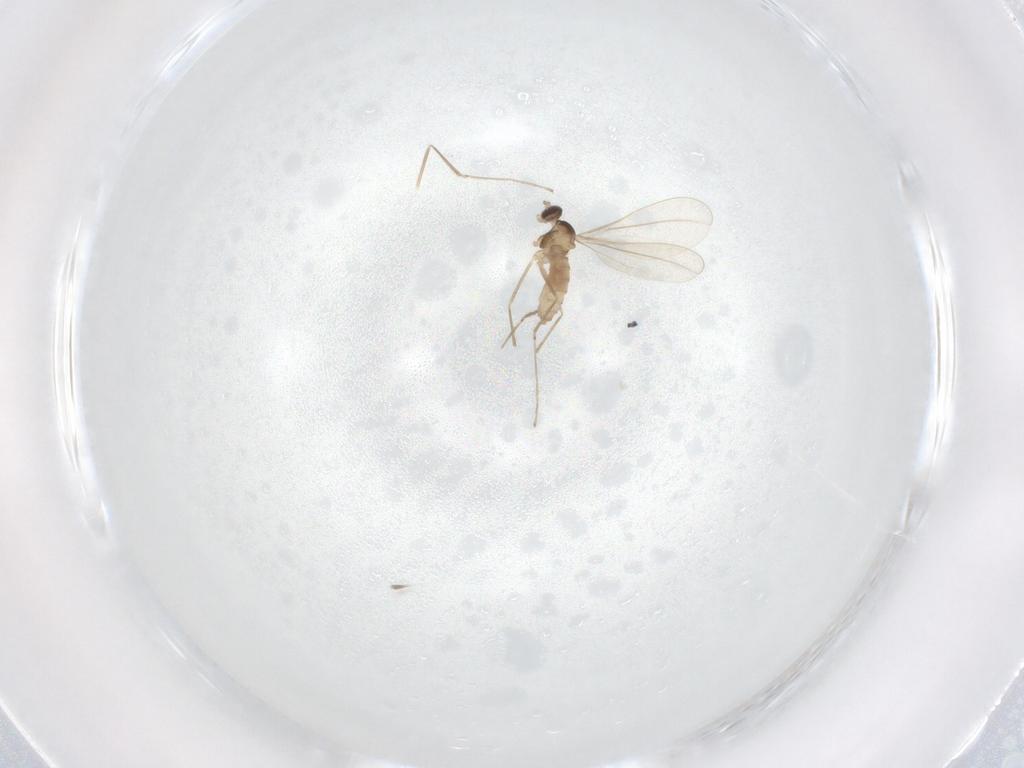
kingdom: Animalia
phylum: Arthropoda
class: Insecta
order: Diptera
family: Cecidomyiidae
